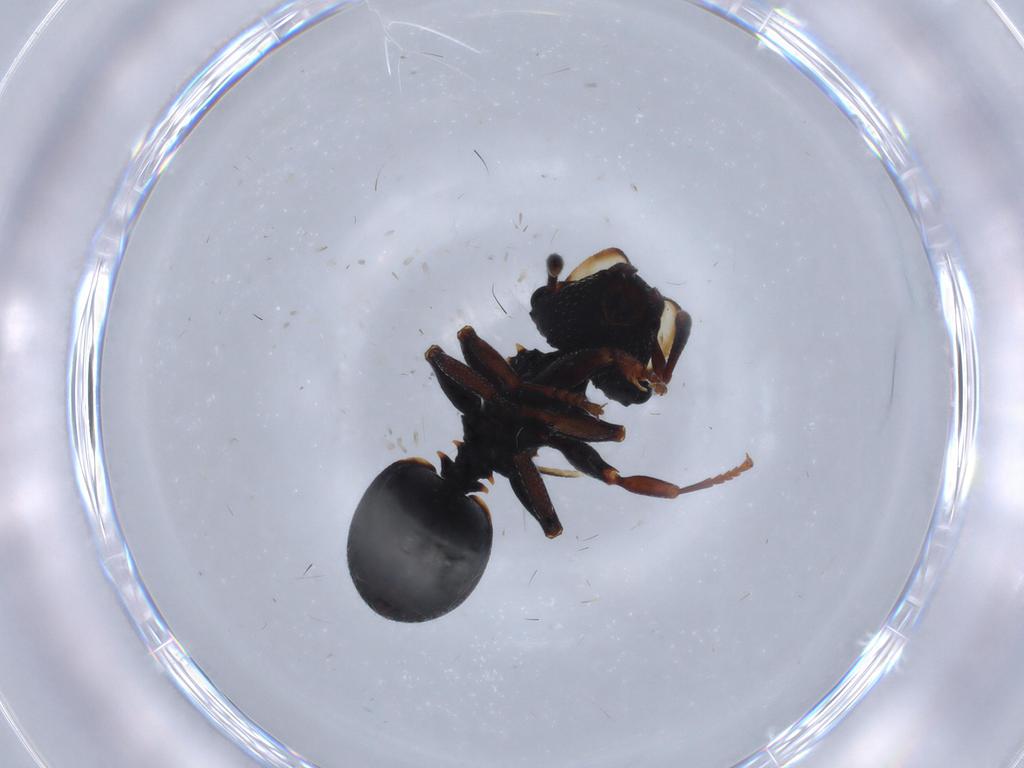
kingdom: Animalia
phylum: Arthropoda
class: Insecta
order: Hymenoptera
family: Formicidae
